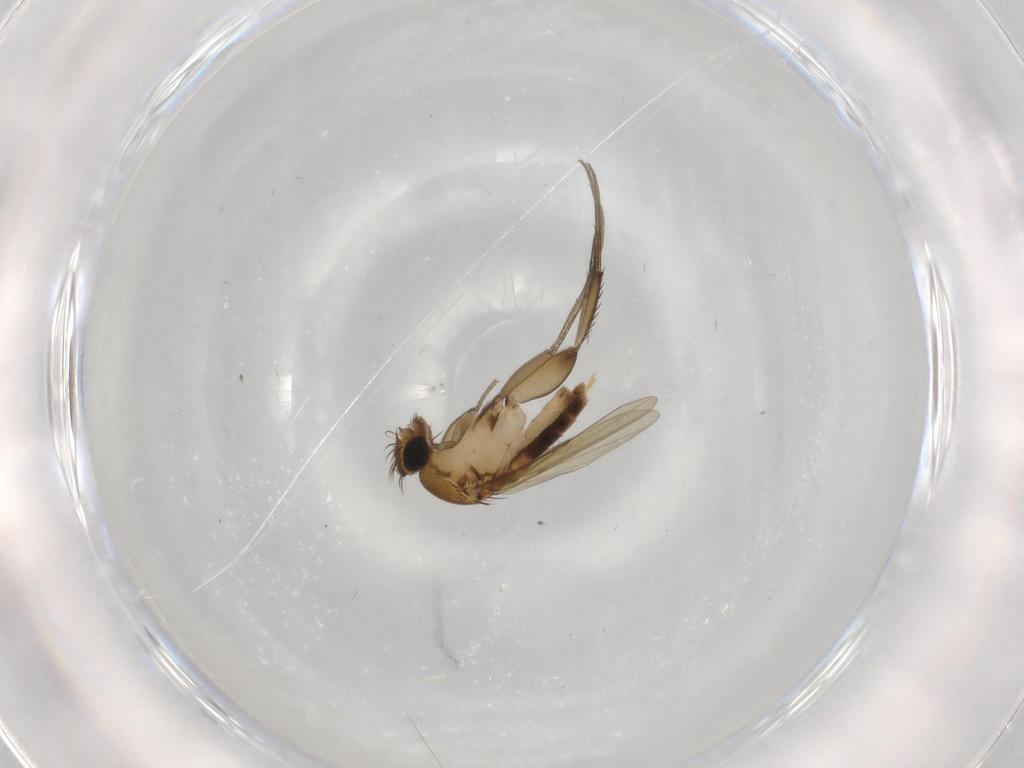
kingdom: Animalia
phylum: Arthropoda
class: Insecta
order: Diptera
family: Phoridae
